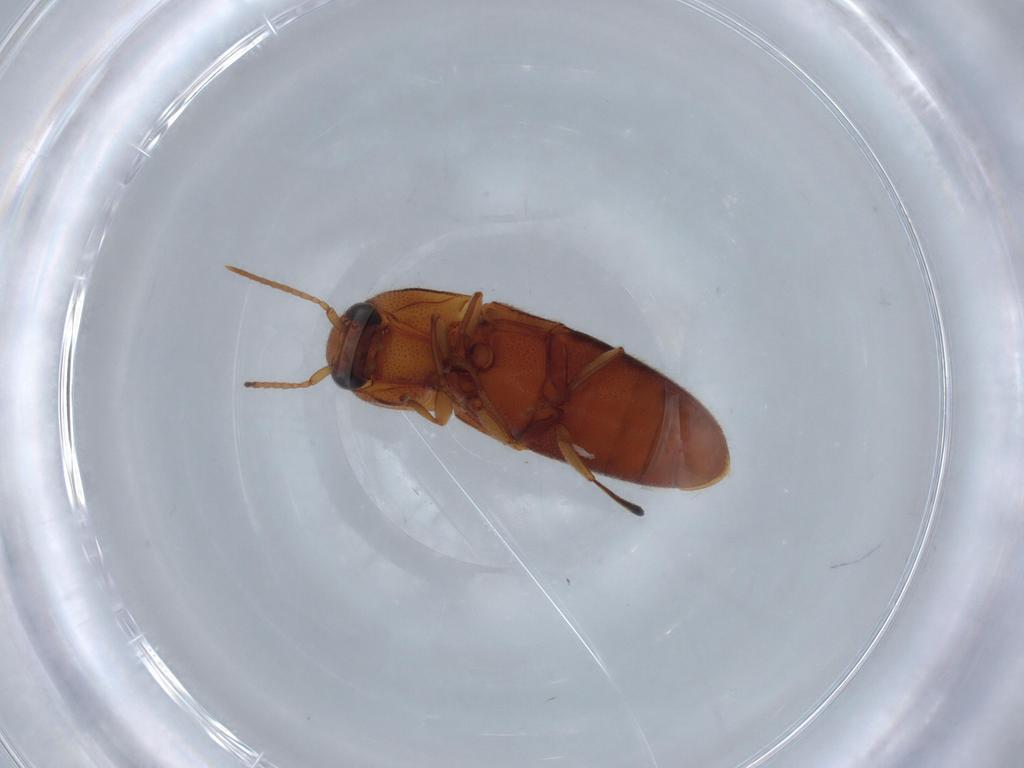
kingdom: Animalia
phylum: Arthropoda
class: Insecta
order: Coleoptera
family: Elateridae
